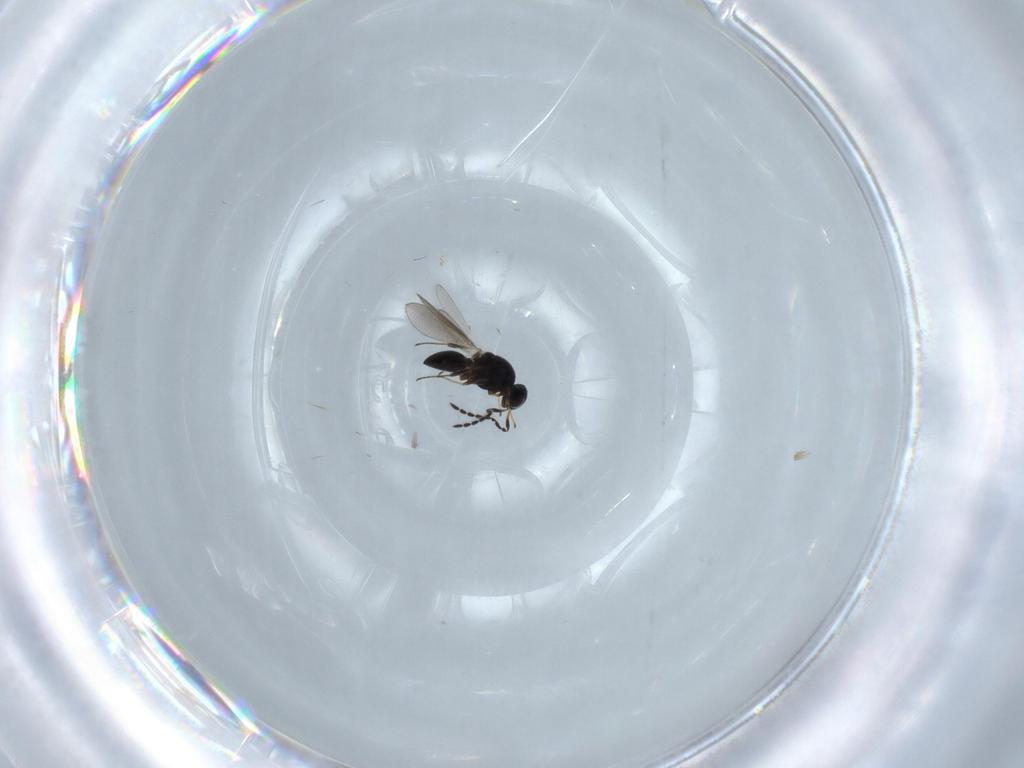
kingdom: Animalia
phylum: Arthropoda
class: Insecta
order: Hymenoptera
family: Platygastridae
